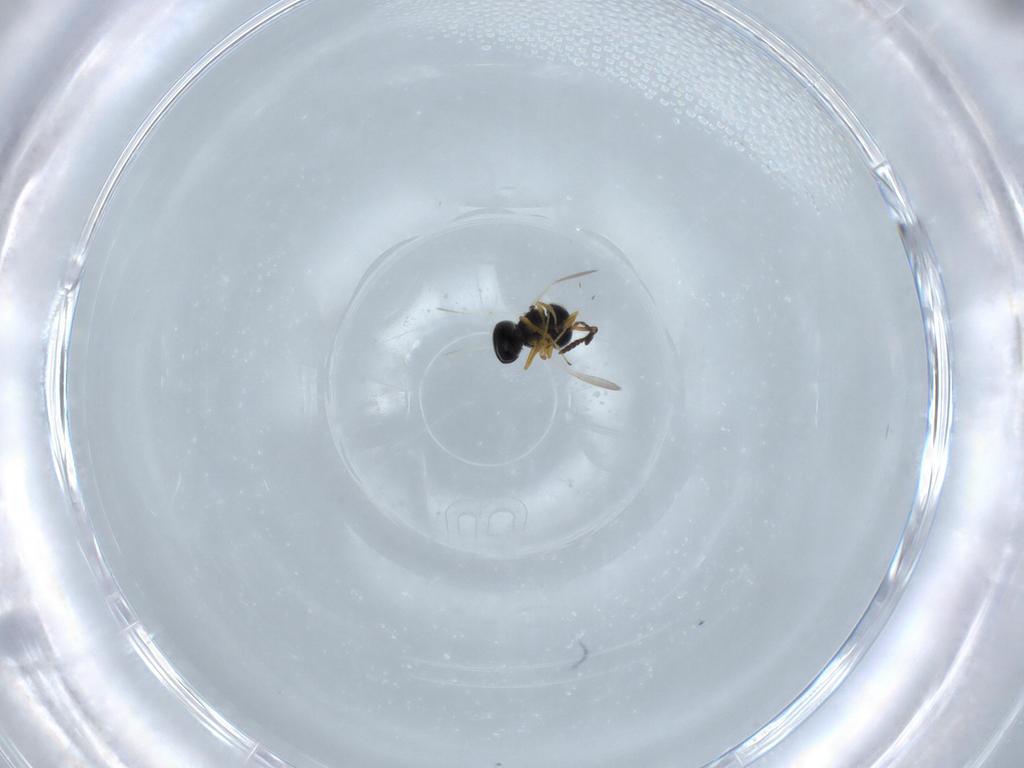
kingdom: Animalia
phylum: Arthropoda
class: Insecta
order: Hymenoptera
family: Scelionidae
